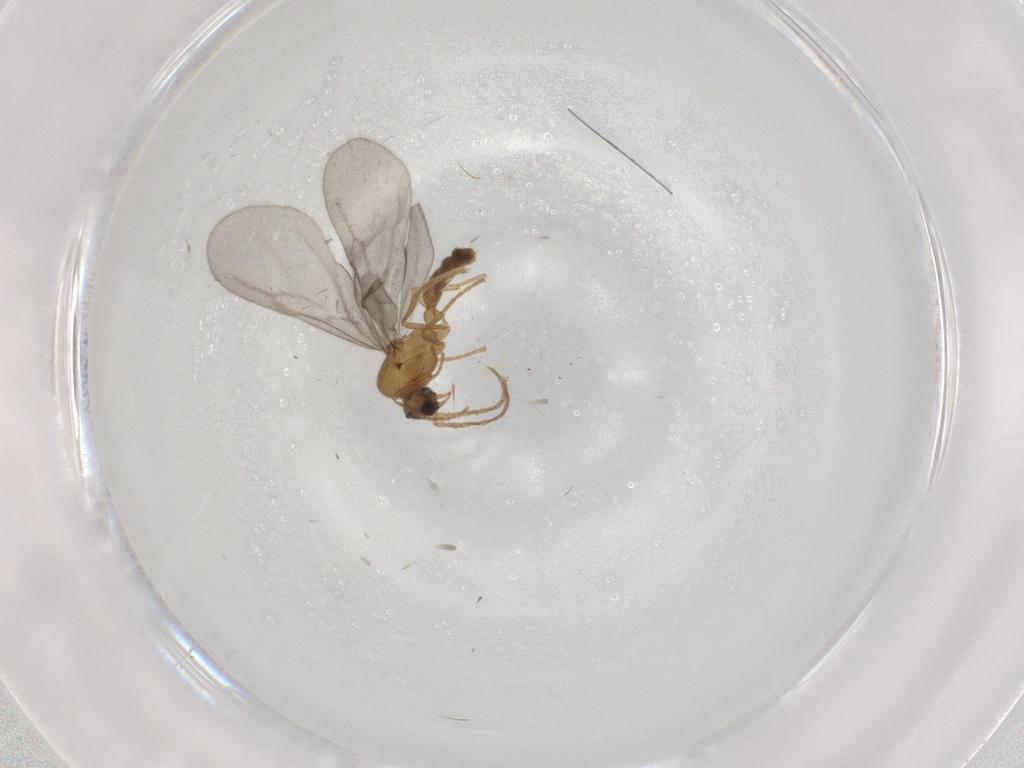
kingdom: Animalia
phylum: Arthropoda
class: Insecta
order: Hymenoptera
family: Formicidae
